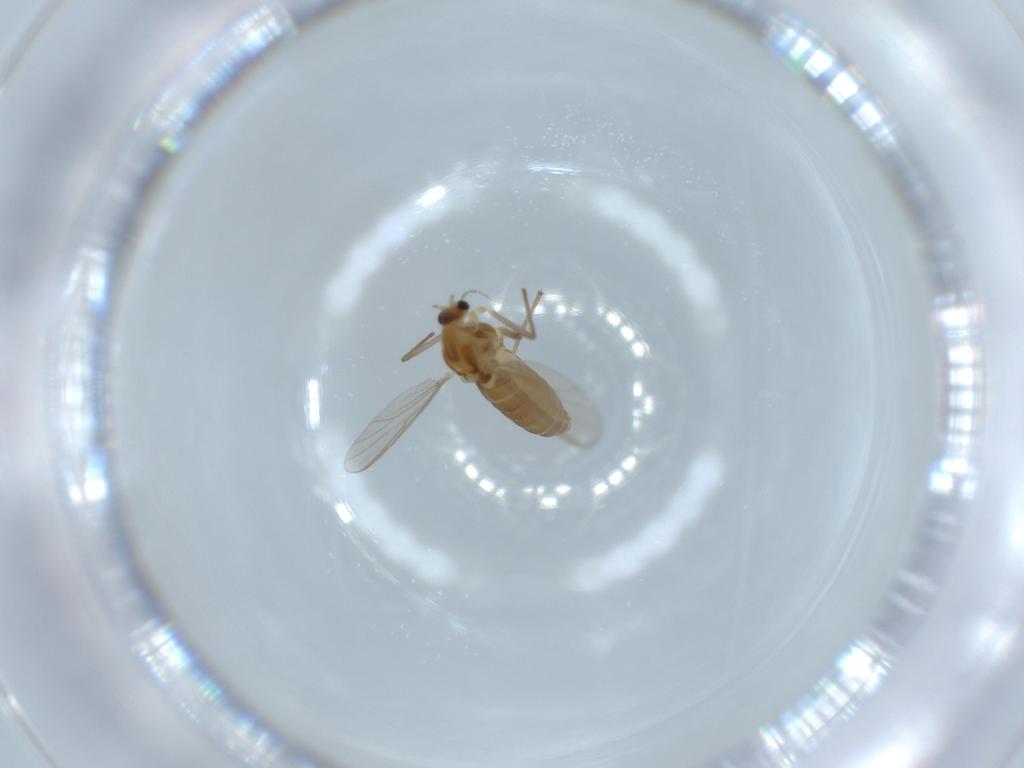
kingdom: Animalia
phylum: Arthropoda
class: Insecta
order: Diptera
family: Chironomidae
